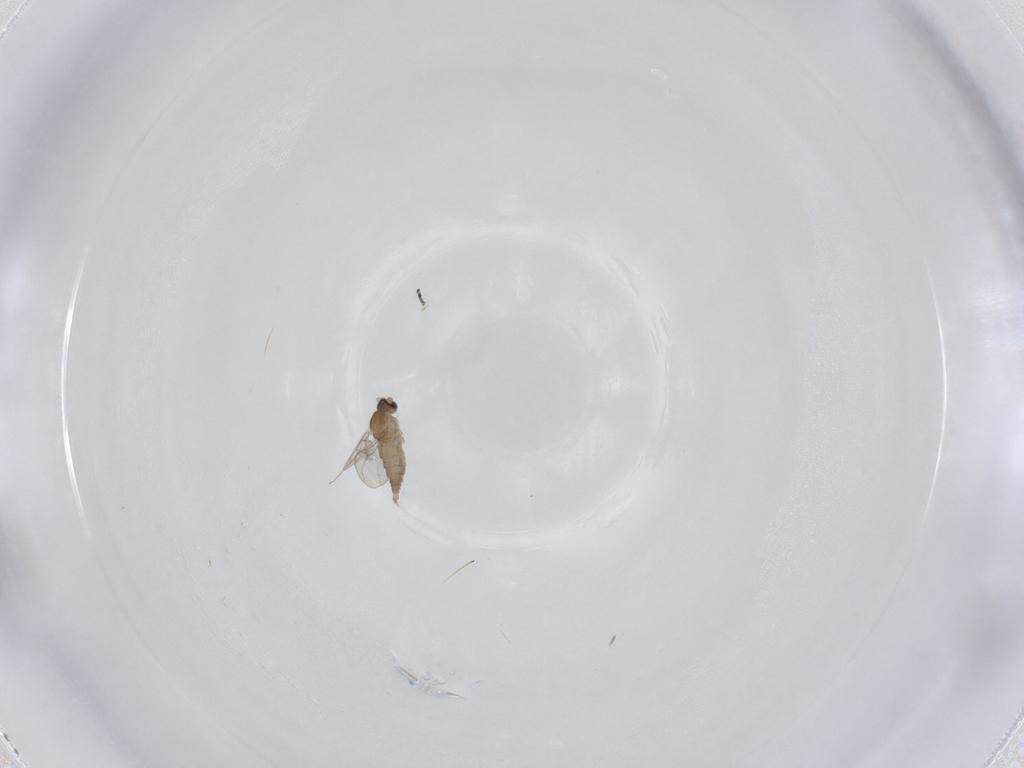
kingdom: Animalia
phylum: Arthropoda
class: Insecta
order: Diptera
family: Cecidomyiidae
